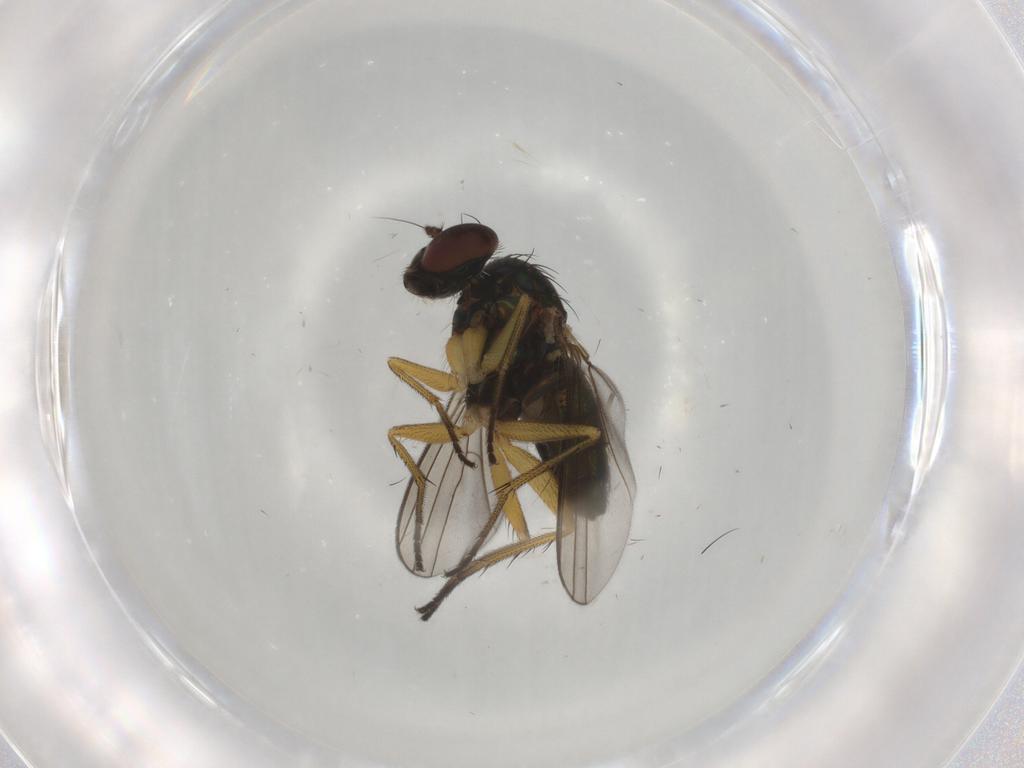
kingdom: Animalia
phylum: Arthropoda
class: Insecta
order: Diptera
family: Dolichopodidae
